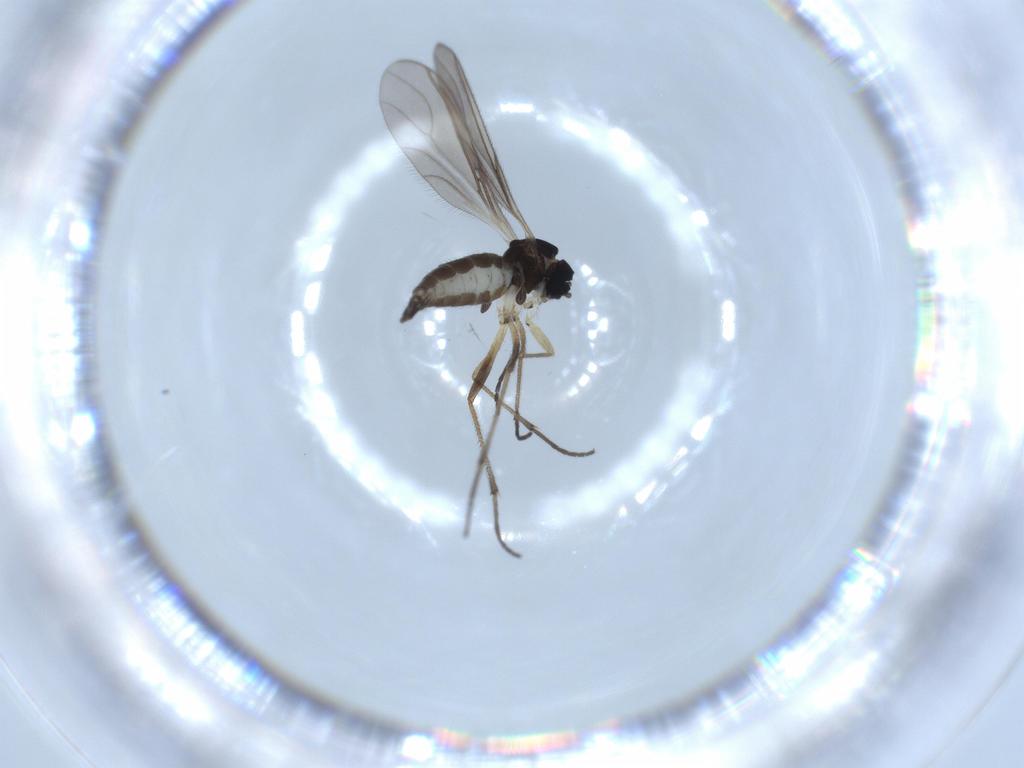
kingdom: Animalia
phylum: Arthropoda
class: Insecta
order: Diptera
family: Sciaridae
